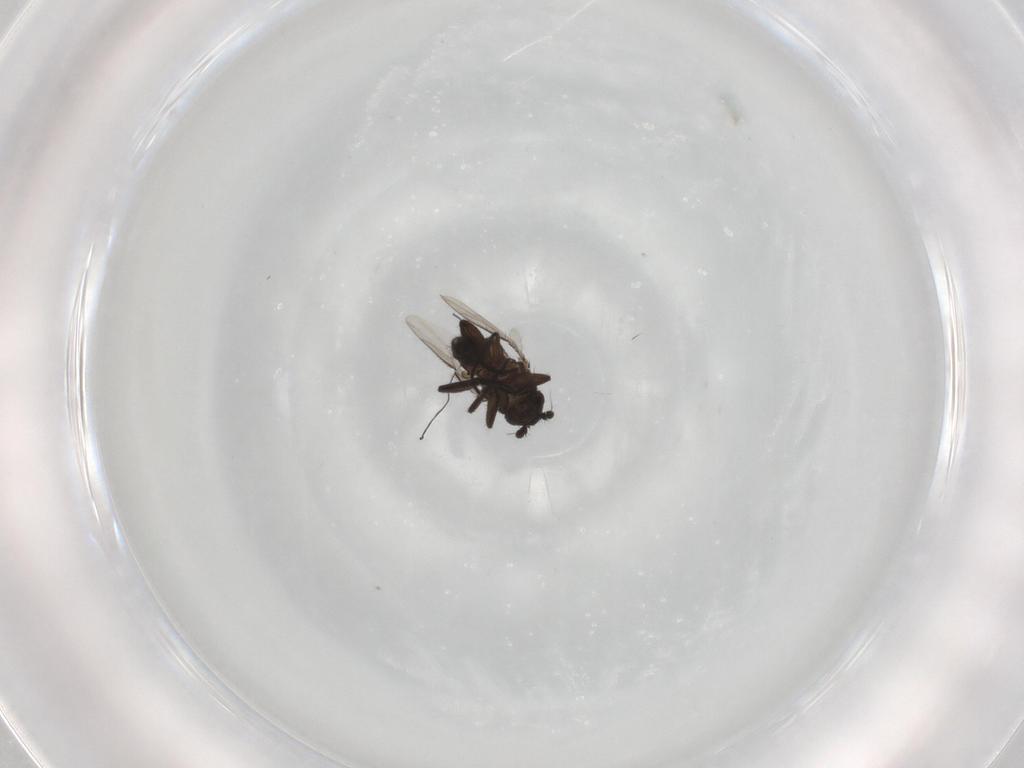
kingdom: Animalia
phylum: Arthropoda
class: Insecta
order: Diptera
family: Sphaeroceridae
